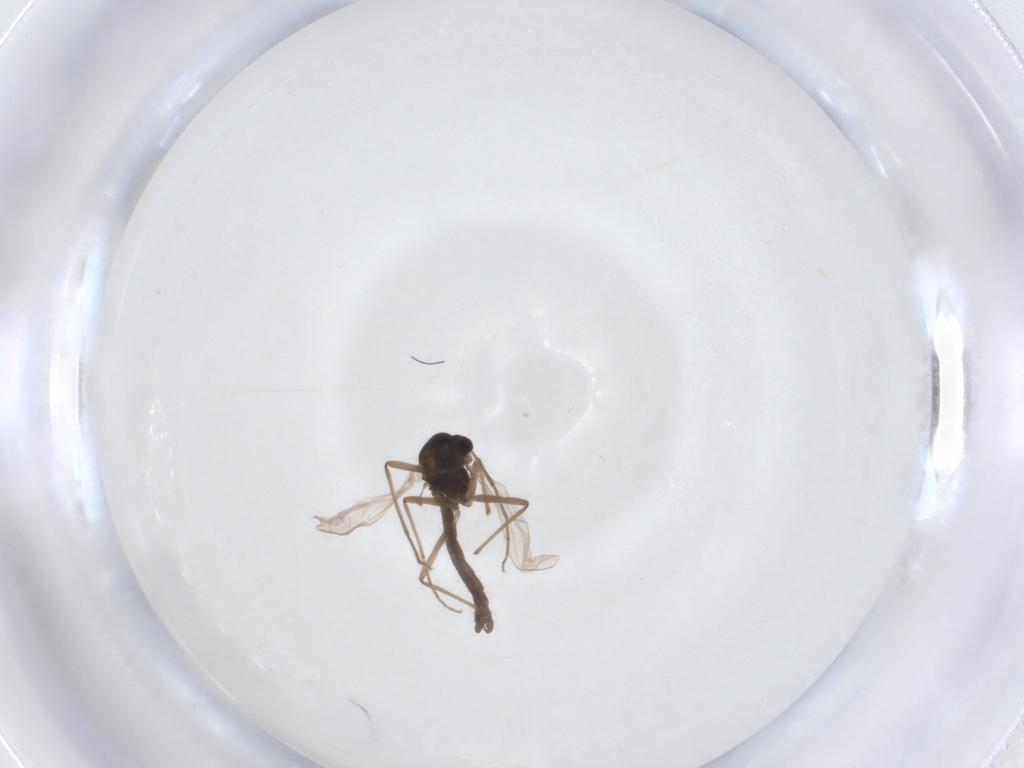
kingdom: Animalia
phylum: Arthropoda
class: Insecta
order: Diptera
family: Chironomidae
